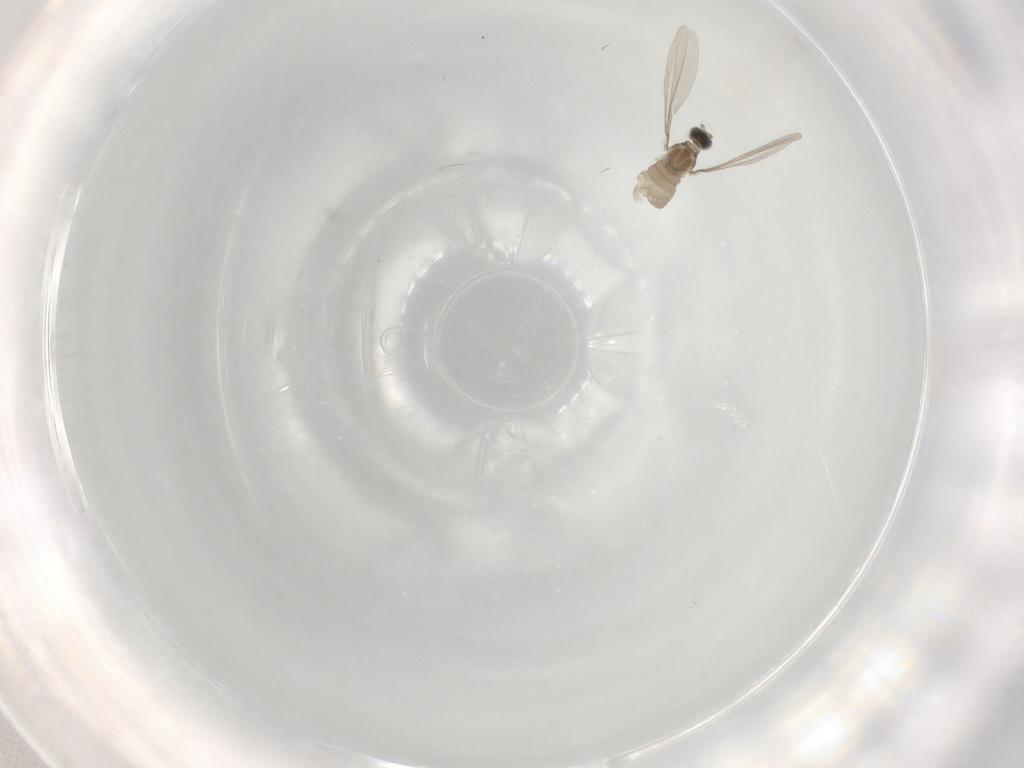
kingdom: Animalia
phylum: Arthropoda
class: Insecta
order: Diptera
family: Cecidomyiidae
